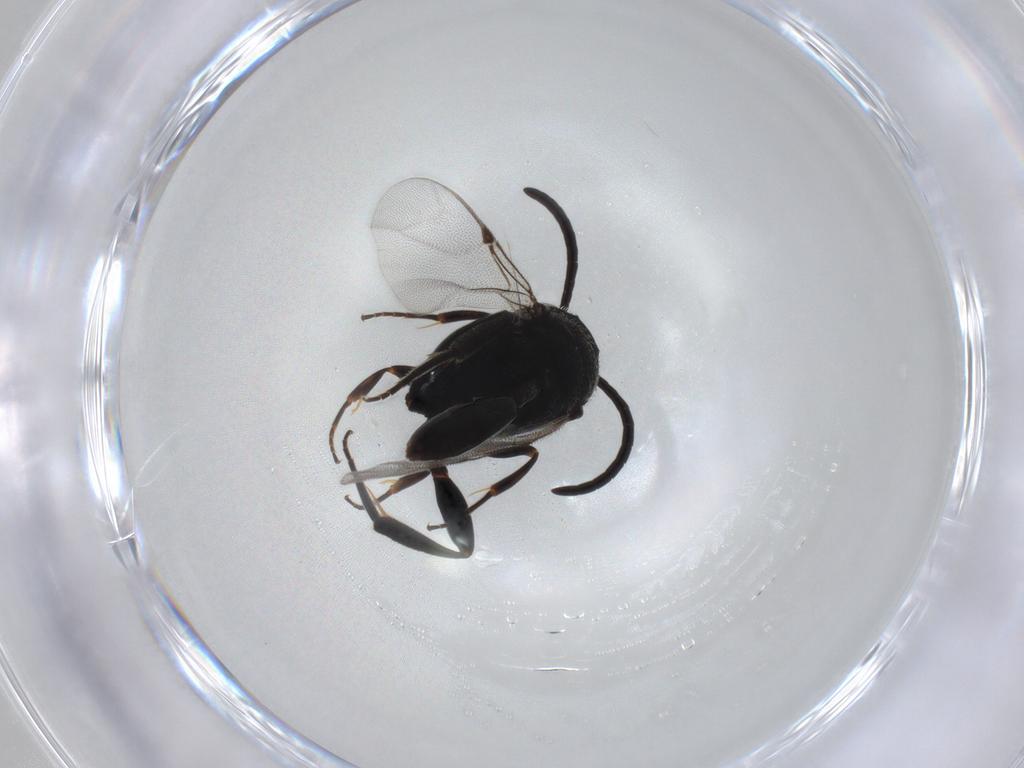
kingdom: Animalia
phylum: Arthropoda
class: Insecta
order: Hymenoptera
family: Evaniidae
